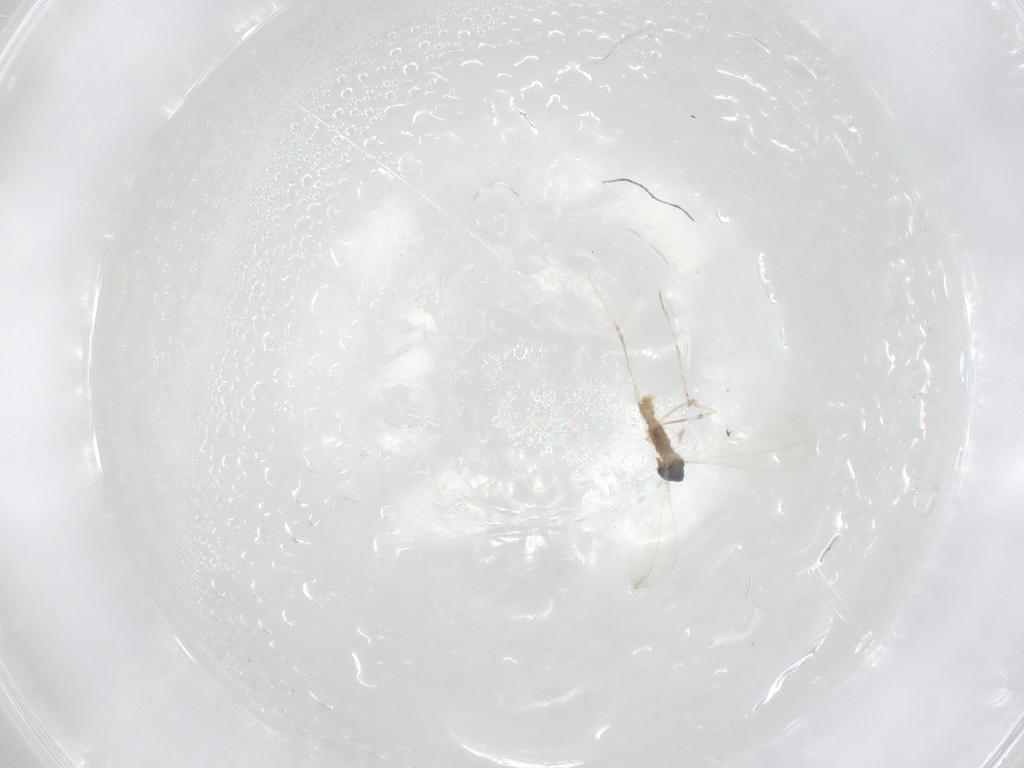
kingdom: Animalia
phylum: Arthropoda
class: Insecta
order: Diptera
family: Cecidomyiidae
